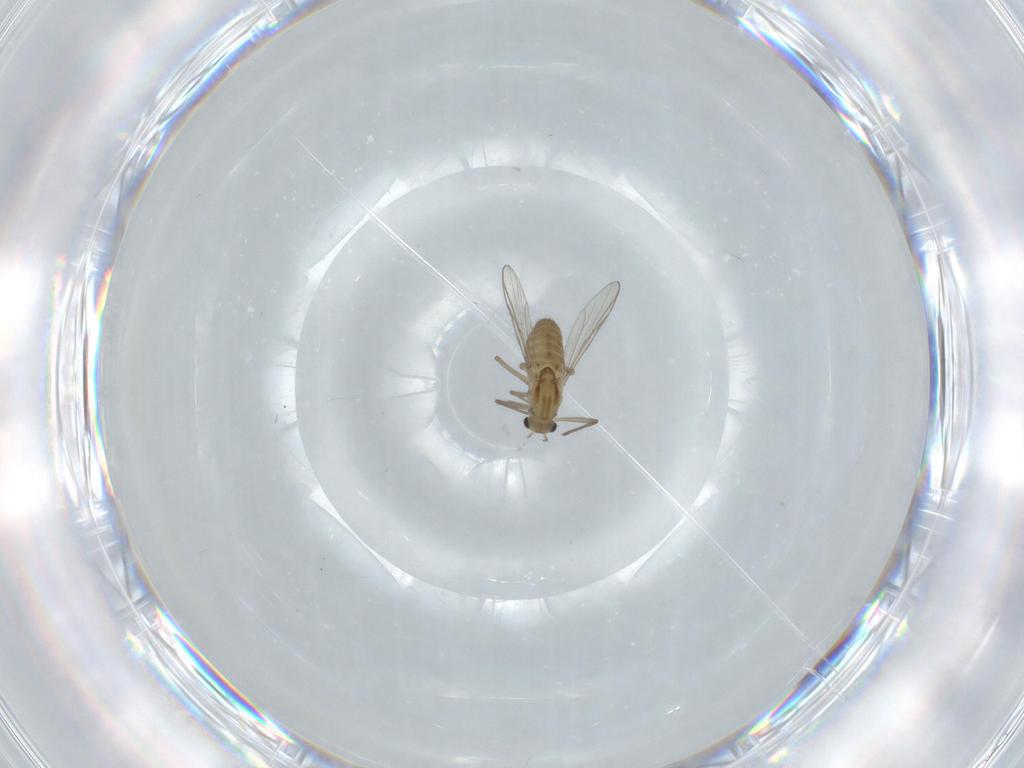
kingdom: Animalia
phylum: Arthropoda
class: Insecta
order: Diptera
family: Chironomidae
